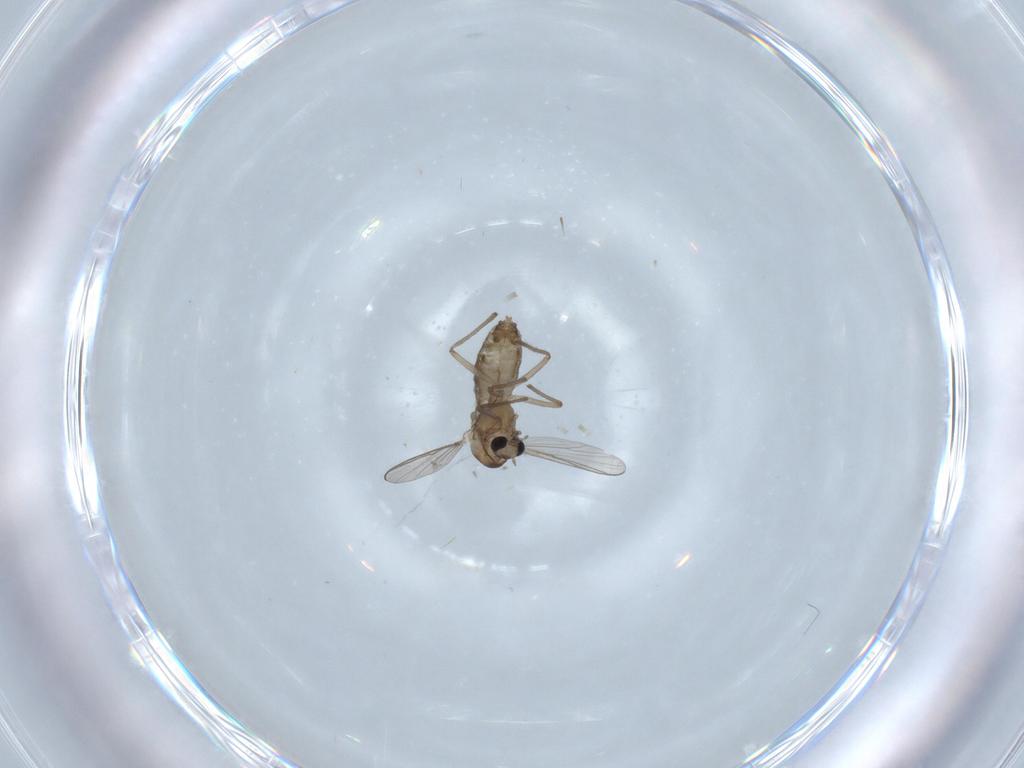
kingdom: Animalia
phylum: Arthropoda
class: Insecta
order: Diptera
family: Chironomidae
